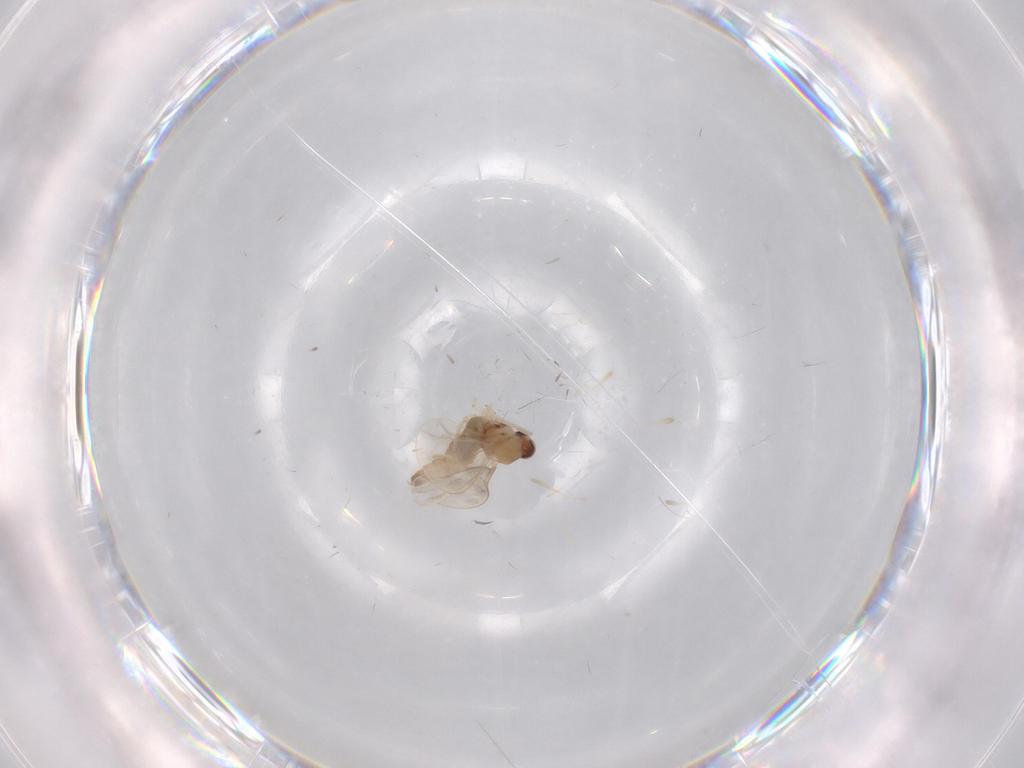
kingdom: Animalia
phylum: Arthropoda
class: Insecta
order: Diptera
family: Cecidomyiidae
